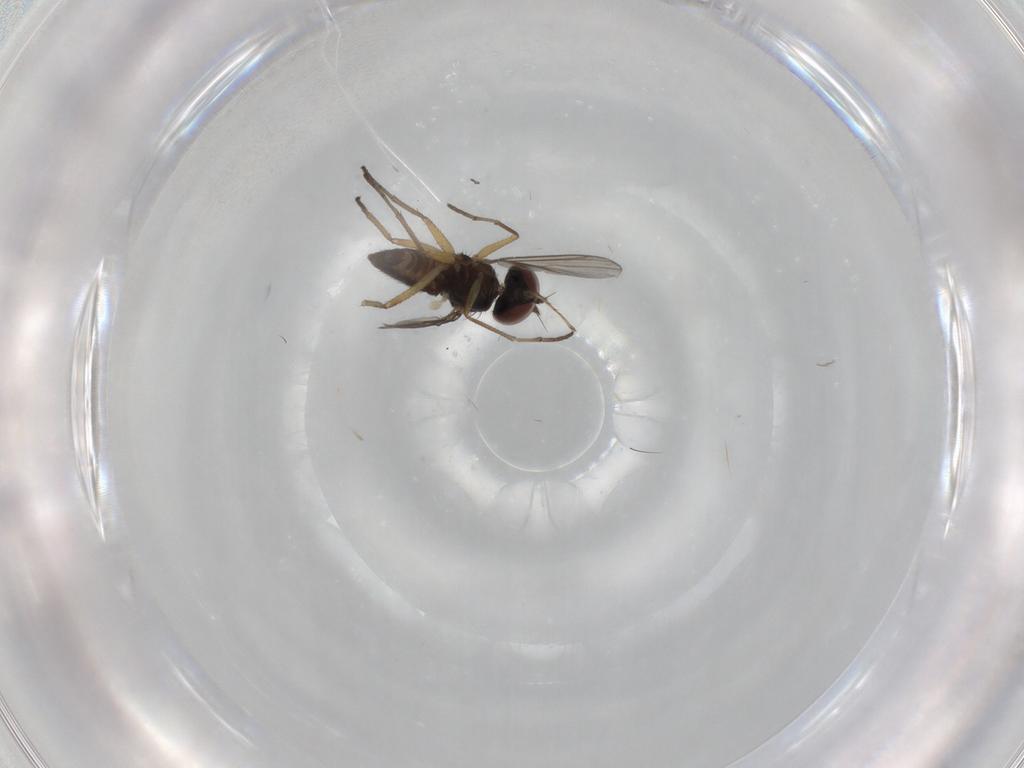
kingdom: Animalia
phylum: Arthropoda
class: Insecta
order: Diptera
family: Dolichopodidae
